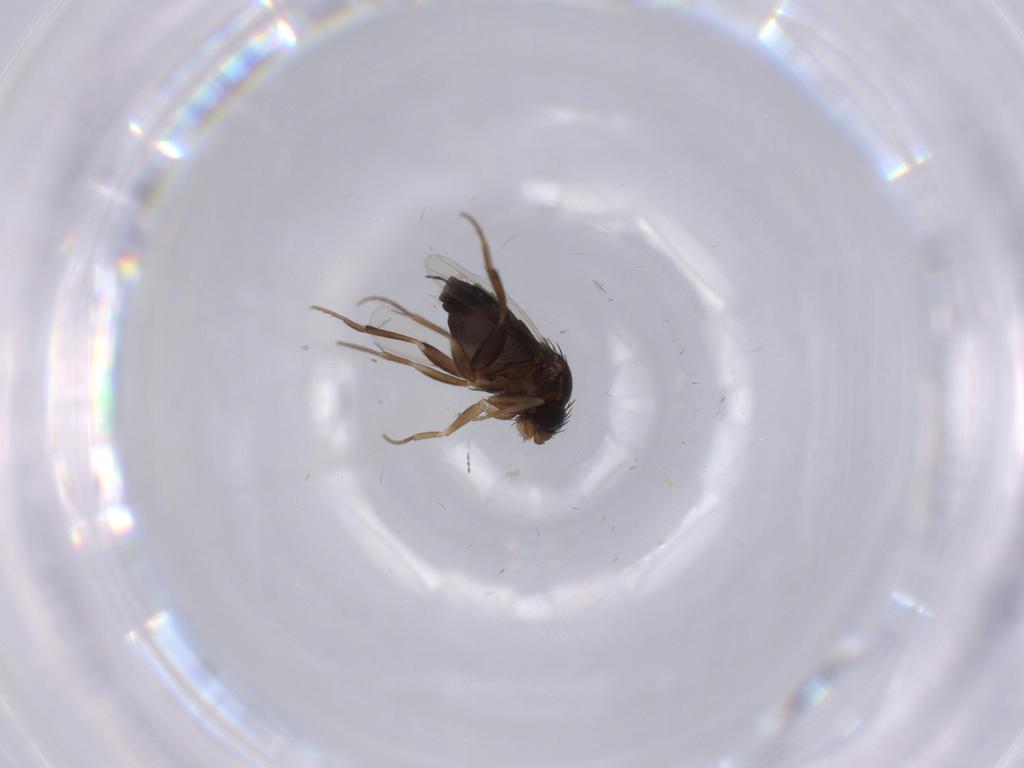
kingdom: Animalia
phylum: Arthropoda
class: Insecta
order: Diptera
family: Phoridae
